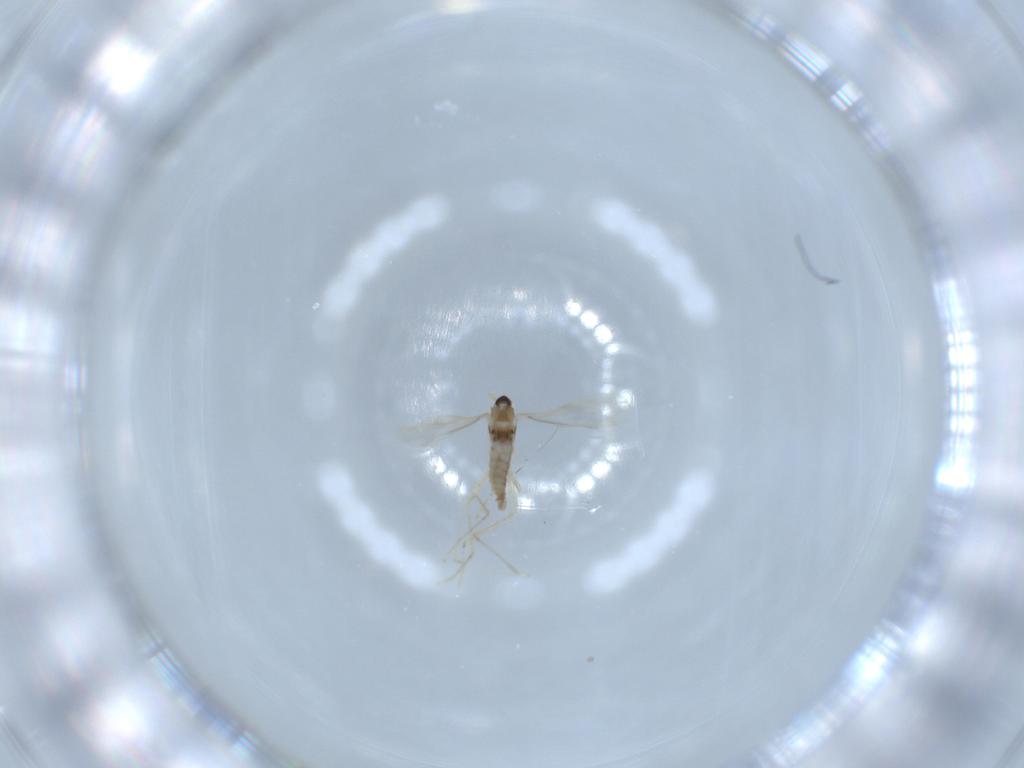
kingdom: Animalia
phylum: Arthropoda
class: Insecta
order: Diptera
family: Cecidomyiidae
